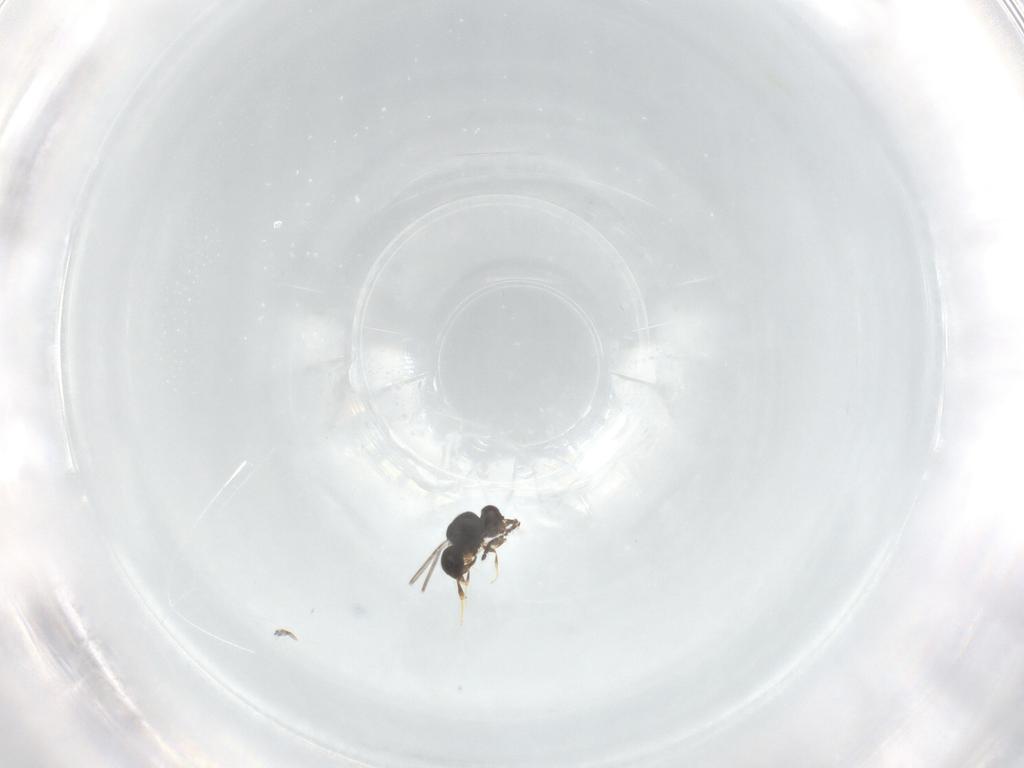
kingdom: Animalia
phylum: Arthropoda
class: Insecta
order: Hymenoptera
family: Ceraphronidae
